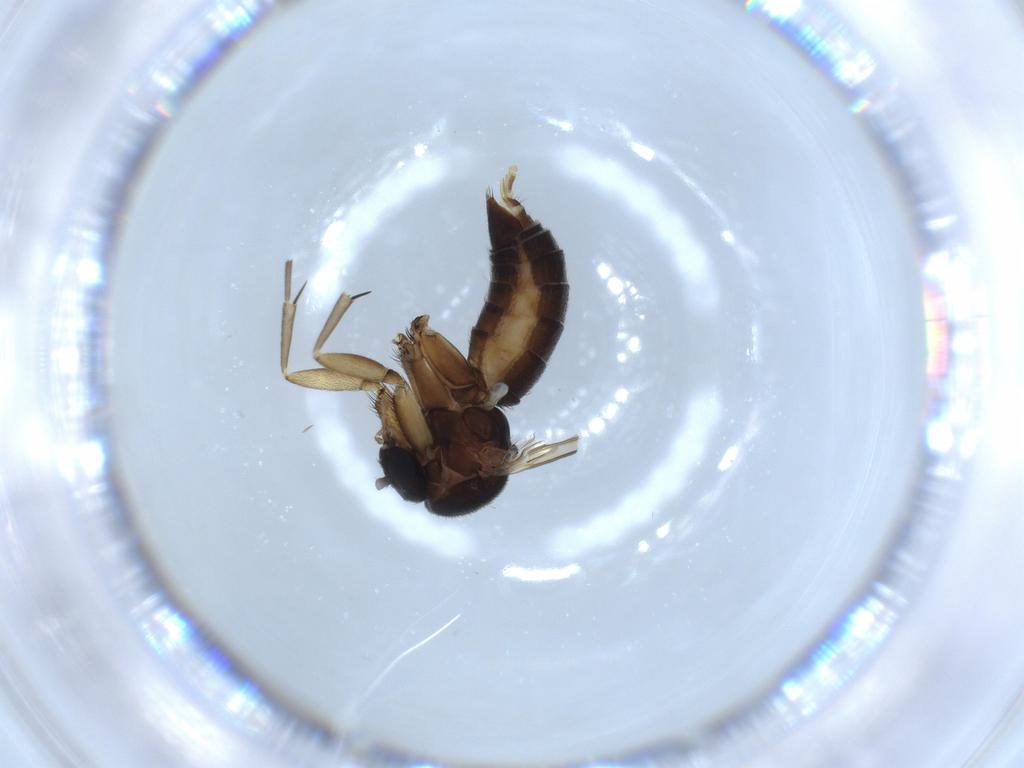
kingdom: Animalia
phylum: Arthropoda
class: Insecta
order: Diptera
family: Mycetophilidae
